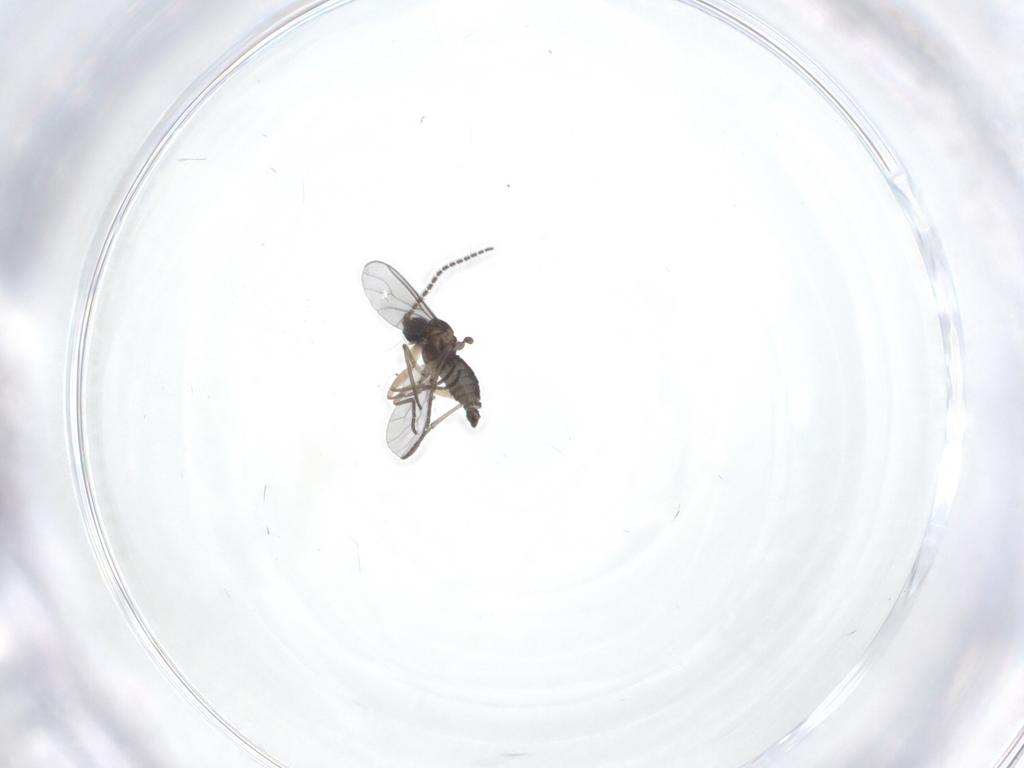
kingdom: Animalia
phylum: Arthropoda
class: Insecta
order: Diptera
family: Sciaridae
